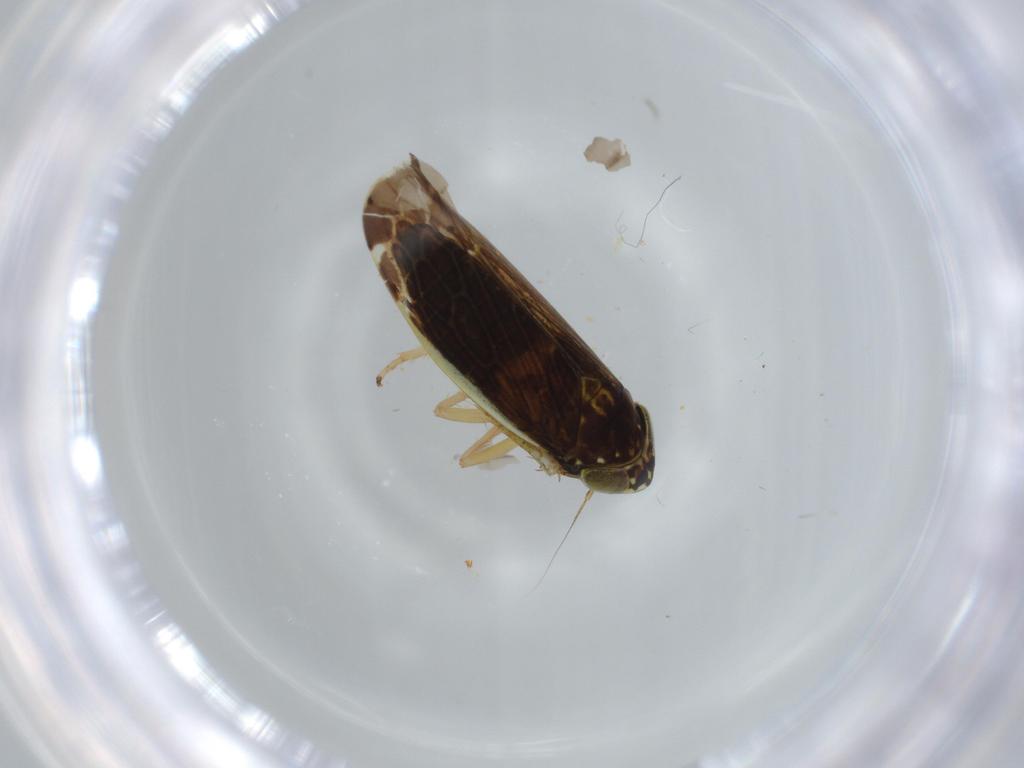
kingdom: Animalia
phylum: Arthropoda
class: Insecta
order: Hemiptera
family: Cicadellidae
